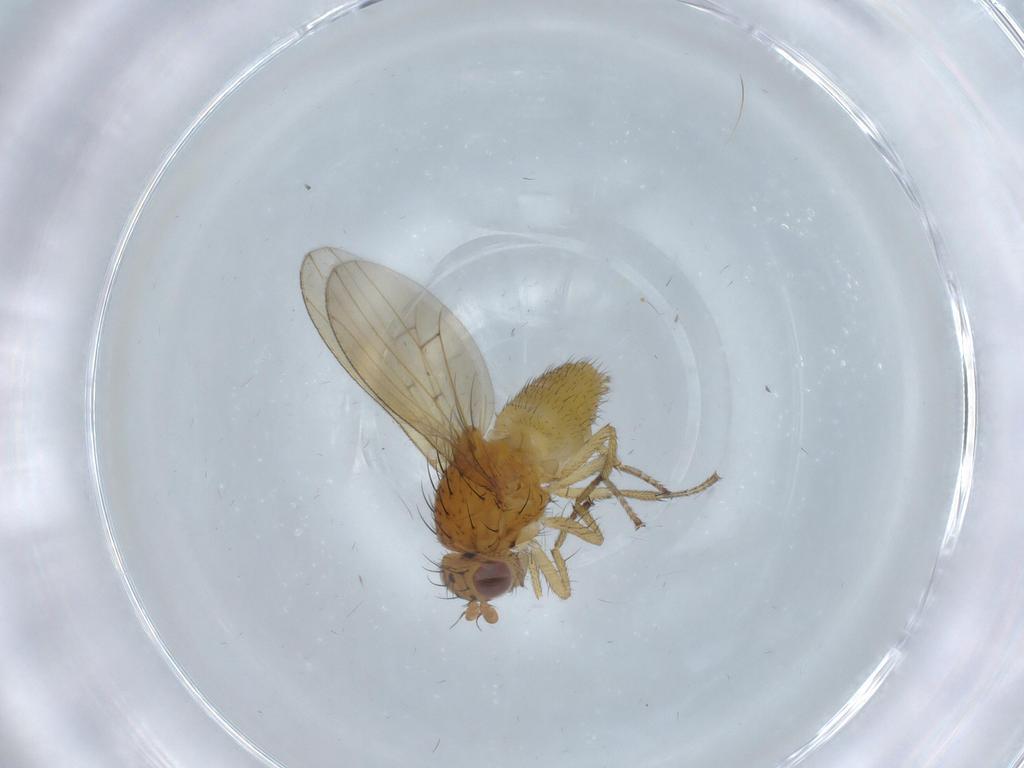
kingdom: Animalia
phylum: Arthropoda
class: Insecta
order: Diptera
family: Chironomidae
